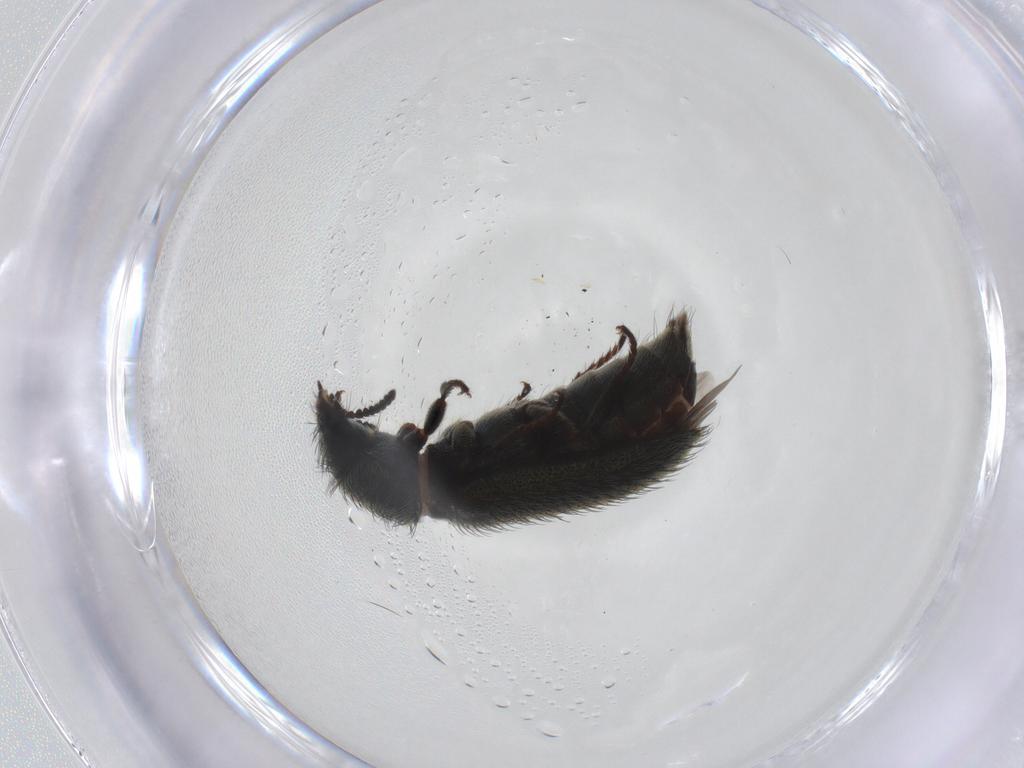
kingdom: Animalia
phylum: Arthropoda
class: Insecta
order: Coleoptera
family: Melyridae
